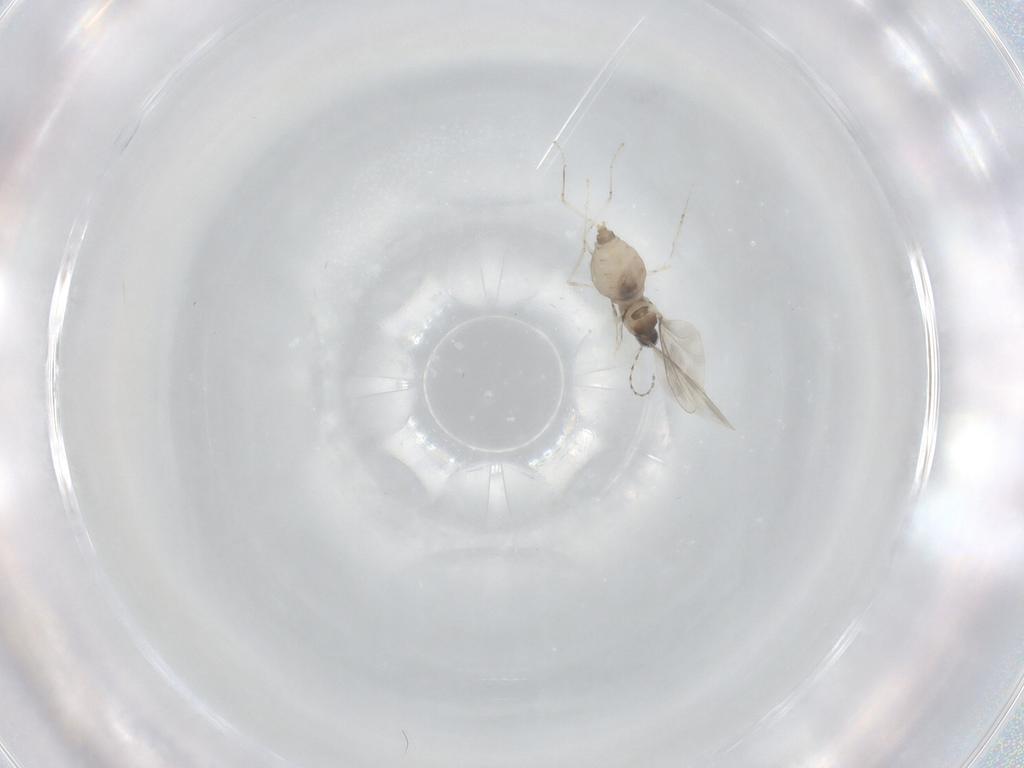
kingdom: Animalia
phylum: Arthropoda
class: Insecta
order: Diptera
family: Cecidomyiidae
